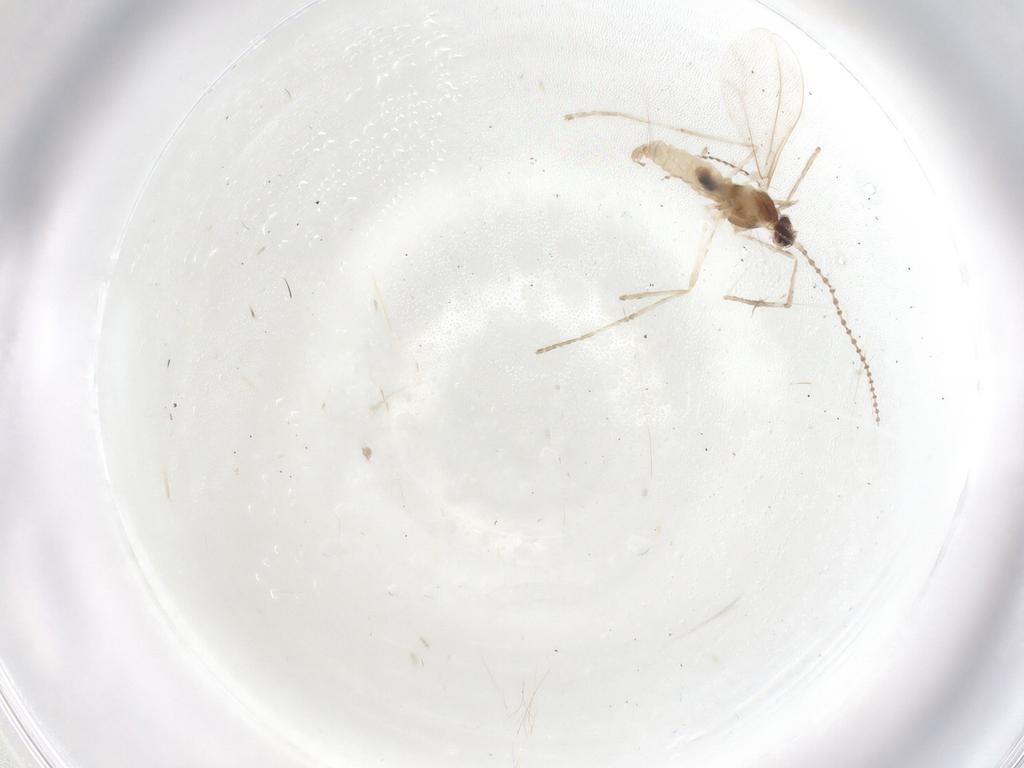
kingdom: Animalia
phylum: Arthropoda
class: Insecta
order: Diptera
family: Cecidomyiidae
